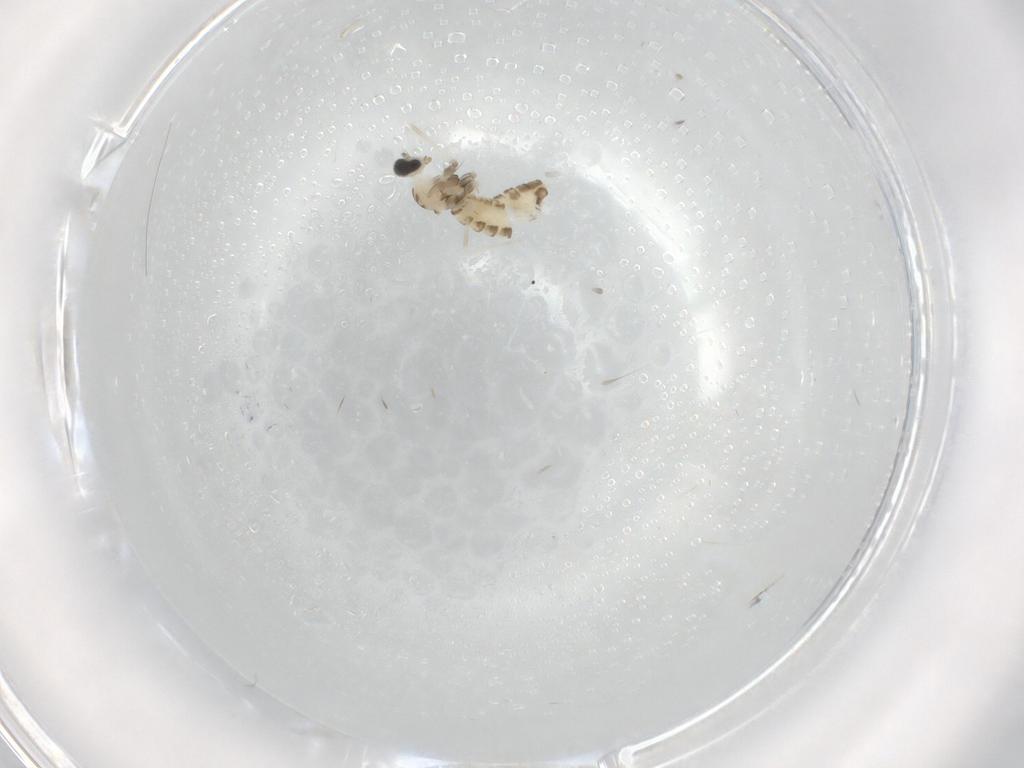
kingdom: Animalia
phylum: Arthropoda
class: Insecta
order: Diptera
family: Cecidomyiidae
